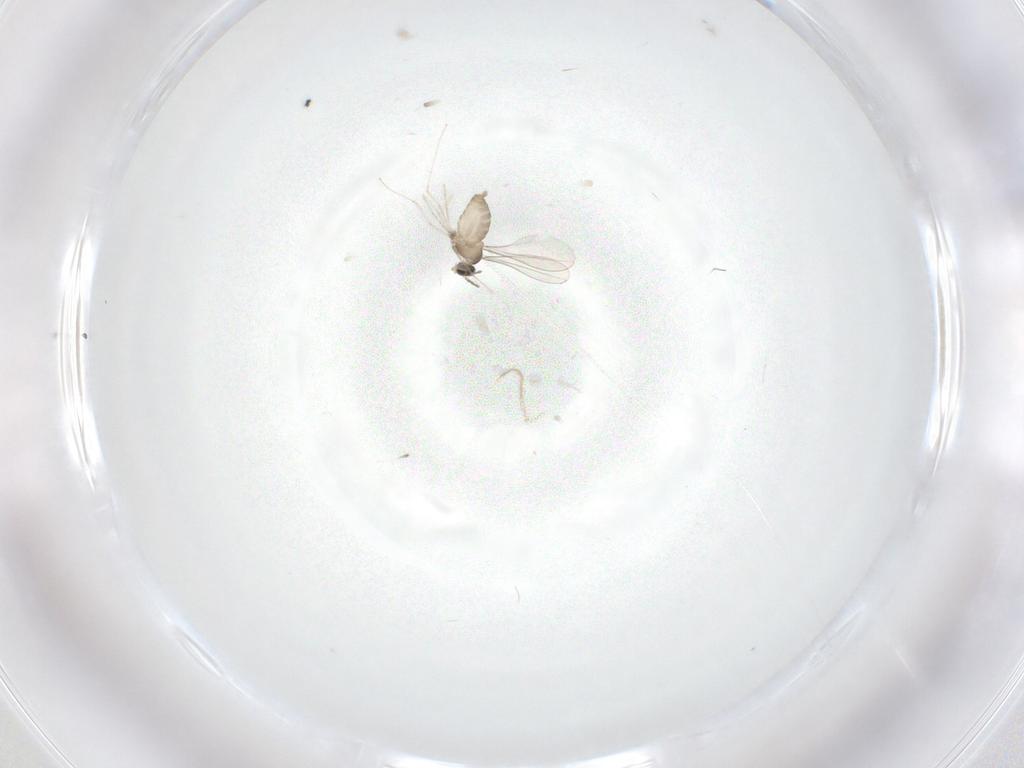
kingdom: Animalia
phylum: Arthropoda
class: Insecta
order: Diptera
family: Cecidomyiidae
